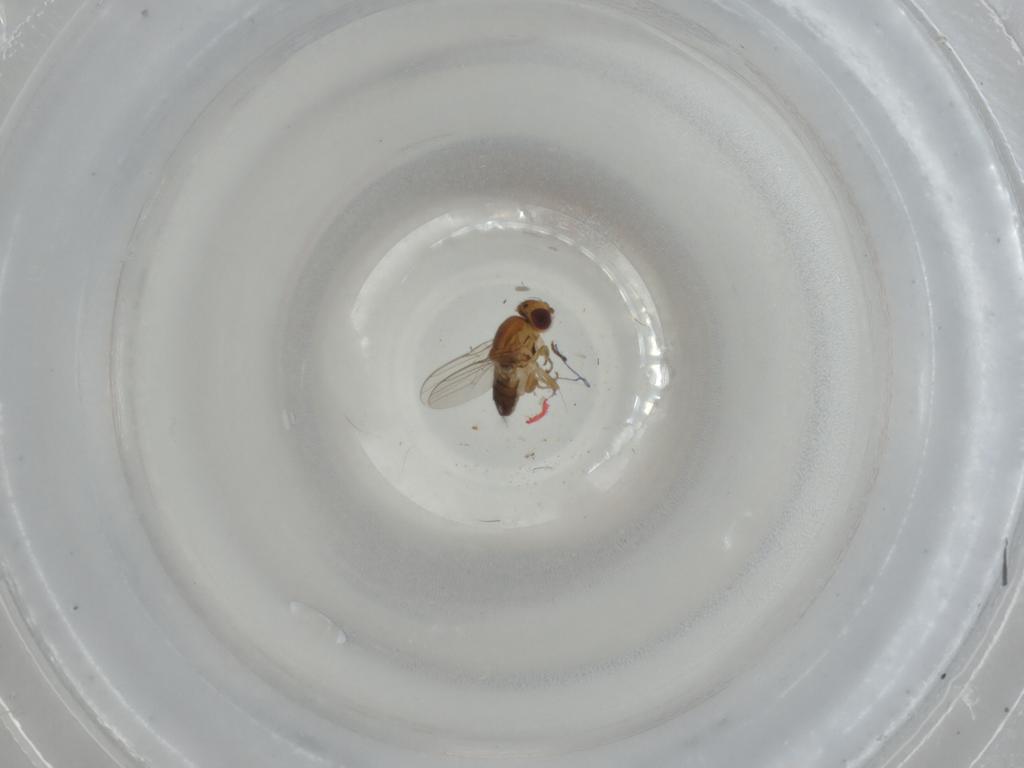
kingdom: Animalia
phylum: Arthropoda
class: Insecta
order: Diptera
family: Chloropidae
